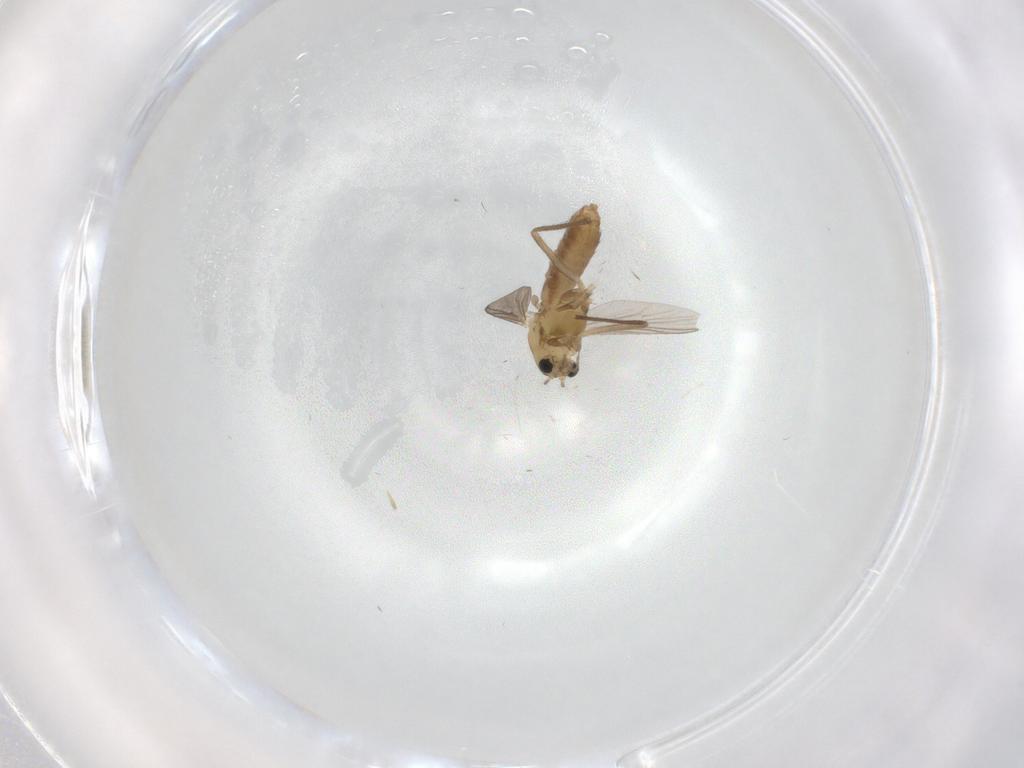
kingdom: Animalia
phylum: Arthropoda
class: Insecta
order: Diptera
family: Chironomidae
